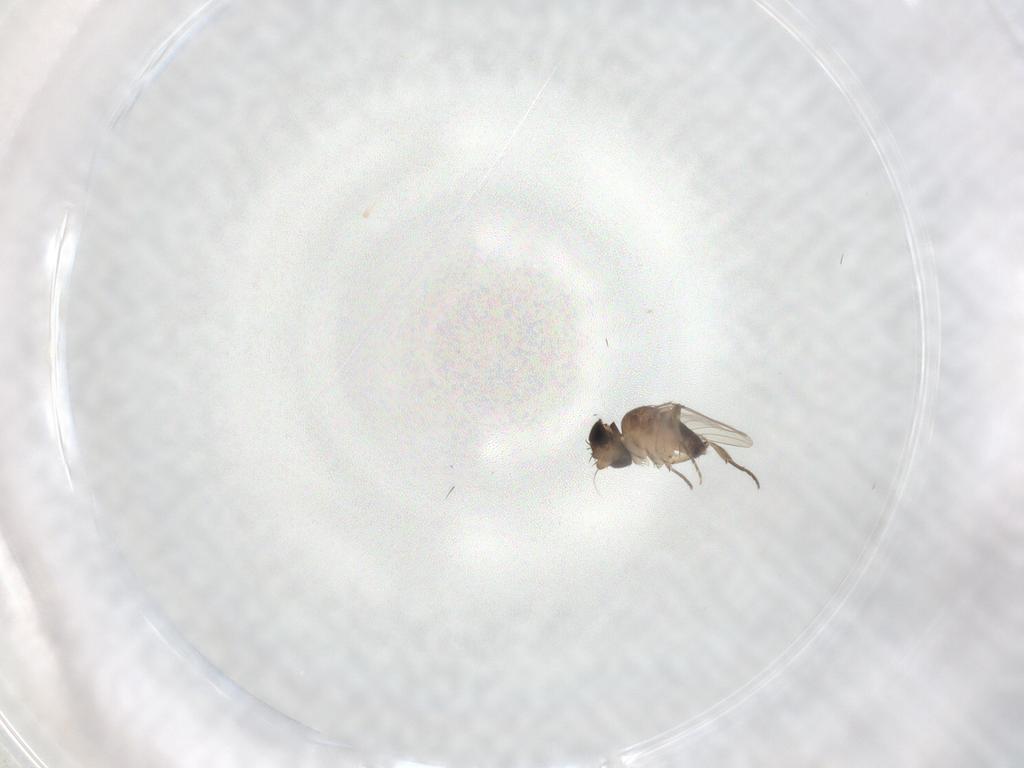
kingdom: Animalia
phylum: Arthropoda
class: Insecta
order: Diptera
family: Phoridae
